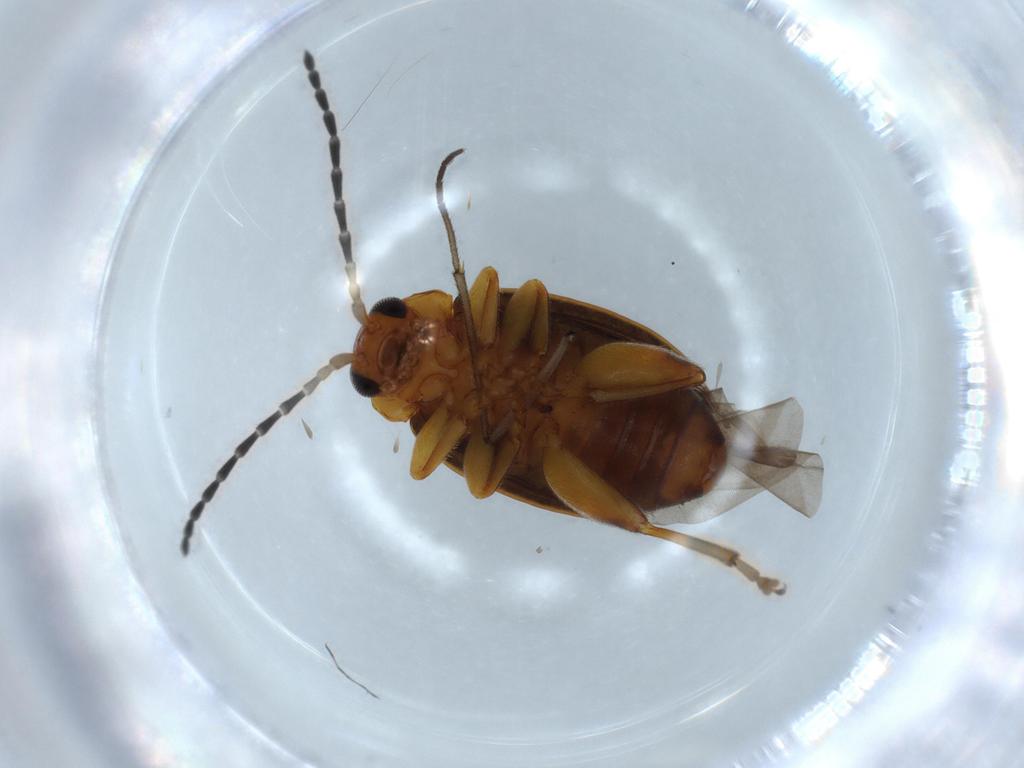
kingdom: Animalia
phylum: Arthropoda
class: Insecta
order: Coleoptera
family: Chrysomelidae
